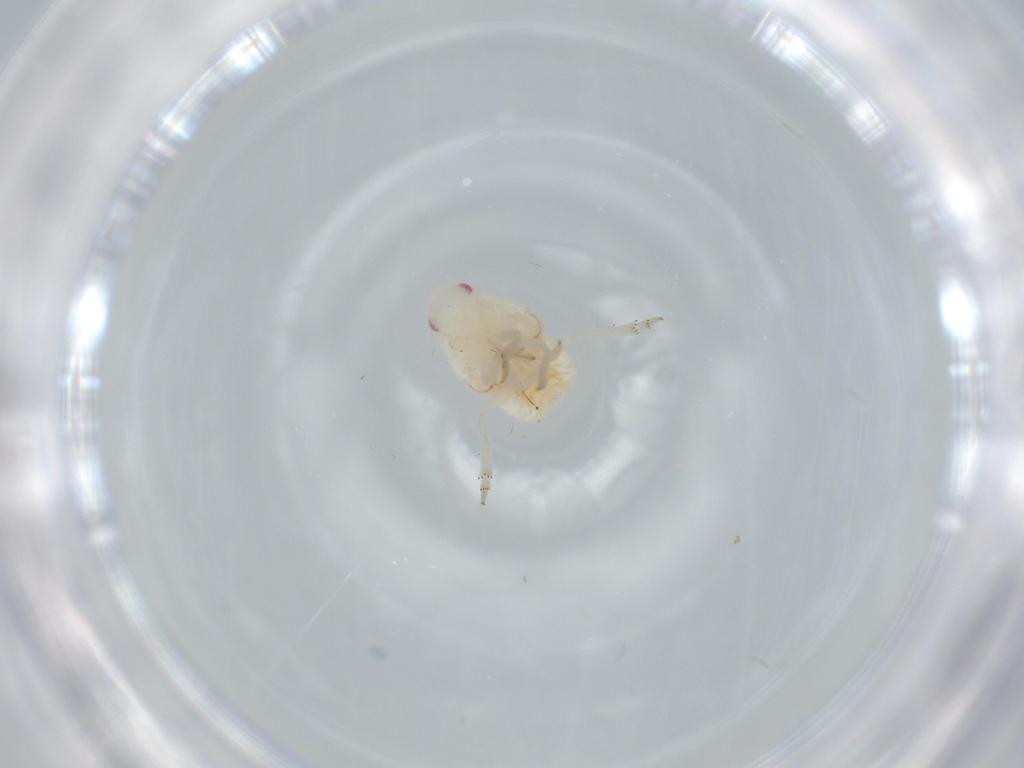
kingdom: Animalia
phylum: Arthropoda
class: Insecta
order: Hemiptera
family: Flatidae
